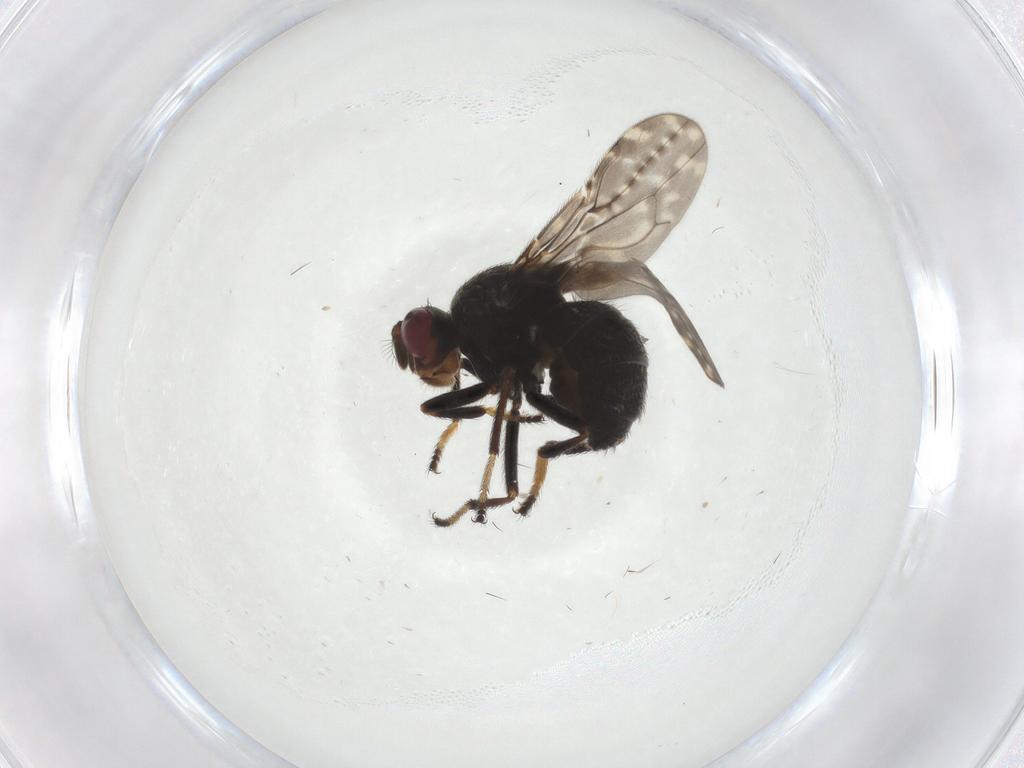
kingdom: Animalia
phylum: Arthropoda
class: Insecta
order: Diptera
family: Ephydridae
